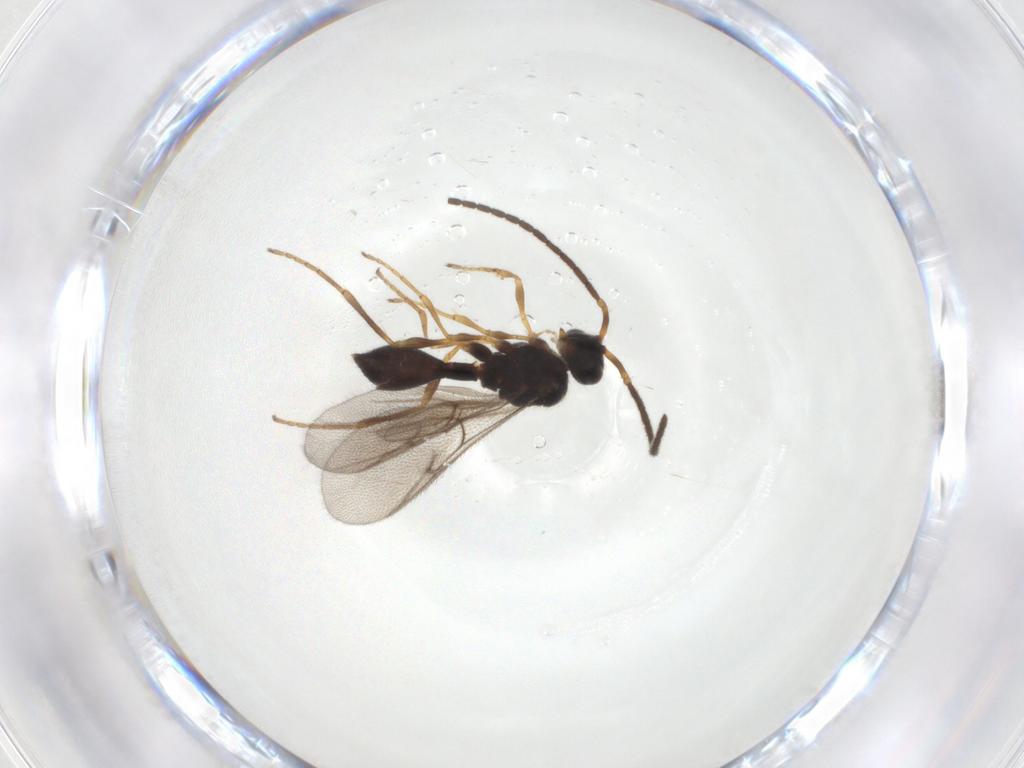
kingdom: Animalia
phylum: Arthropoda
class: Insecta
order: Hymenoptera
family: Diapriidae
